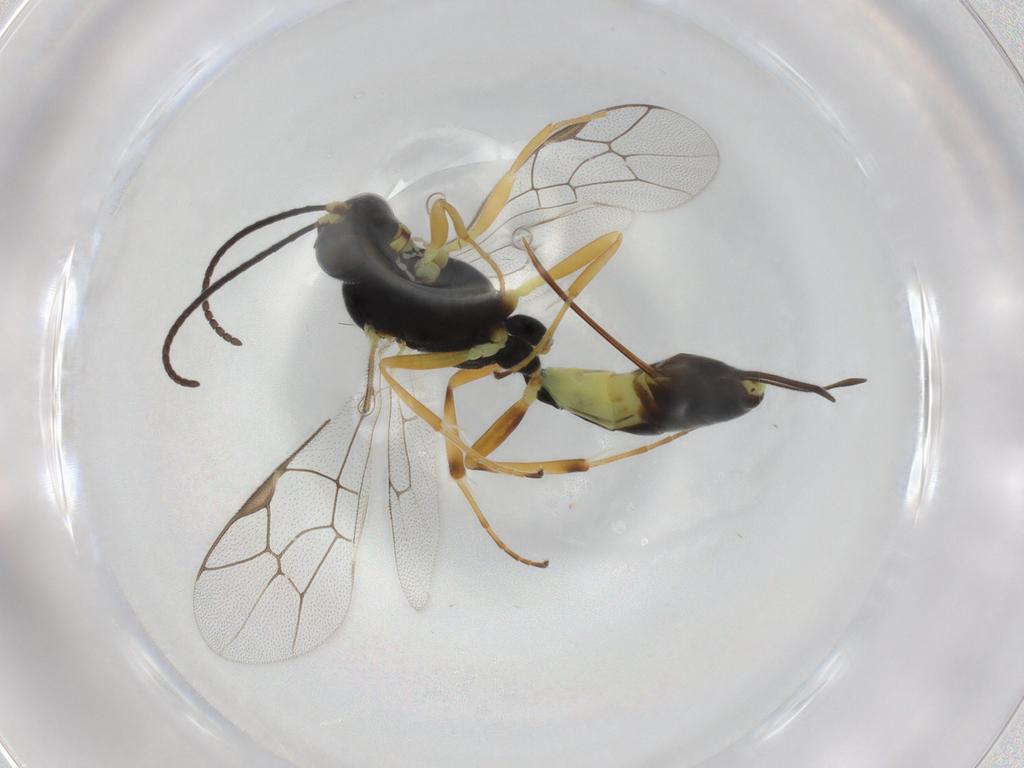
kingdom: Animalia
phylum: Arthropoda
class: Insecta
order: Hymenoptera
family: Ichneumonidae
